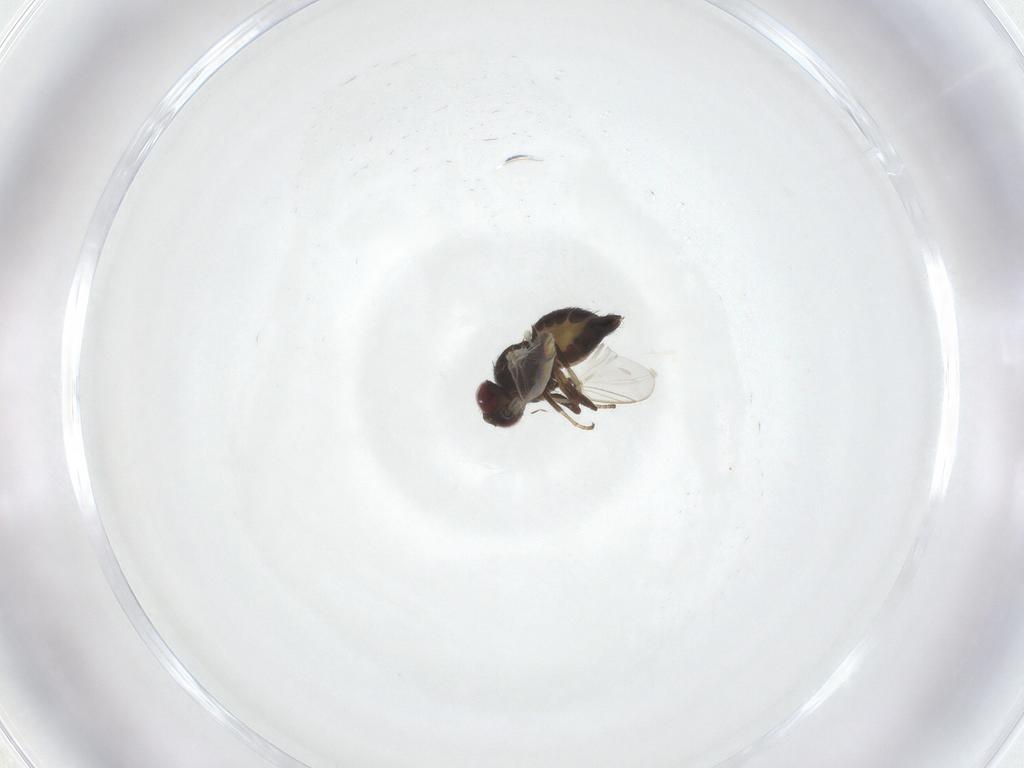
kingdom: Animalia
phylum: Arthropoda
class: Insecta
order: Diptera
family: Agromyzidae
